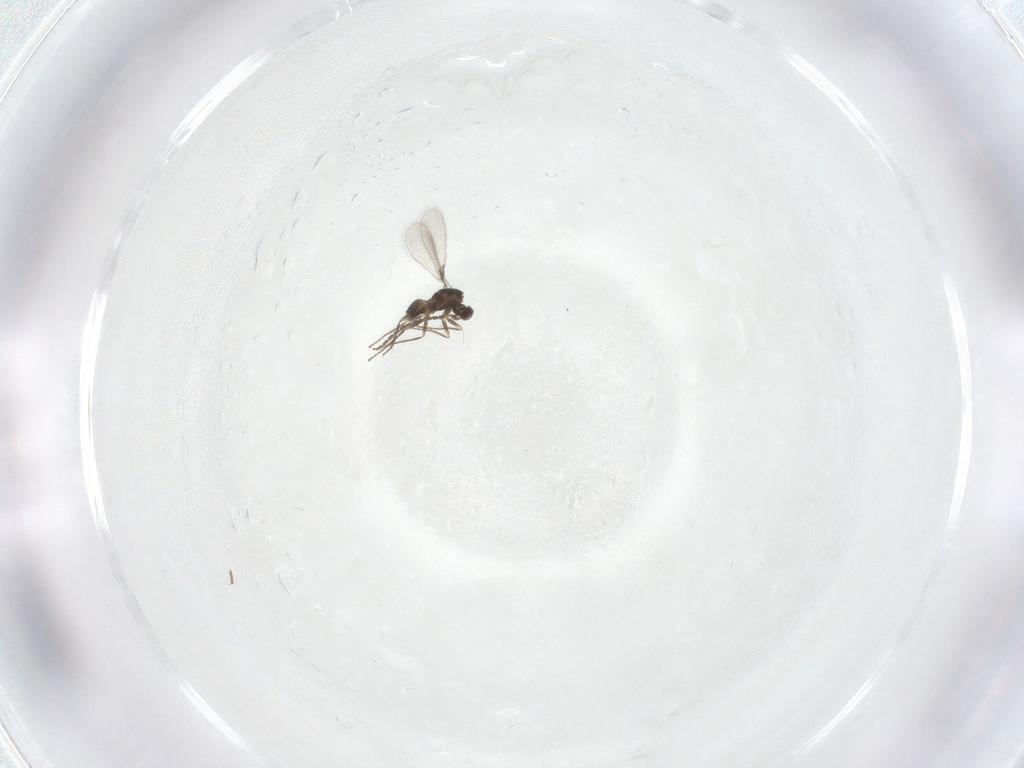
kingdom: Animalia
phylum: Arthropoda
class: Insecta
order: Hymenoptera
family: Mymaridae
